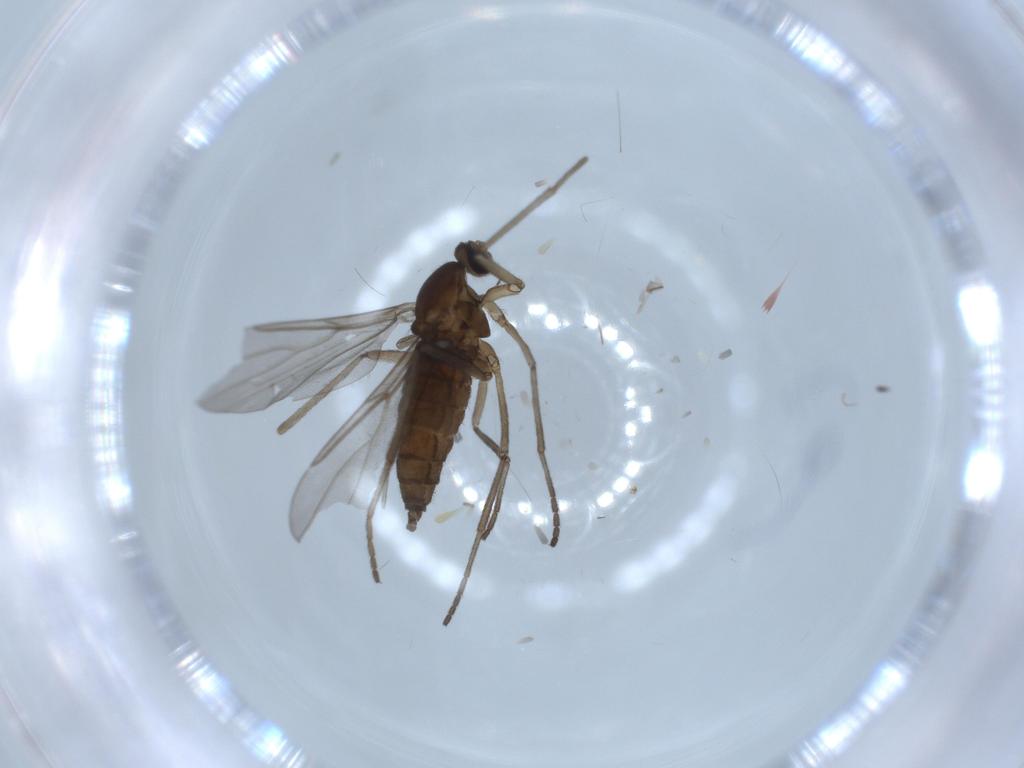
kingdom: Animalia
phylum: Arthropoda
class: Insecta
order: Diptera
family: Cecidomyiidae
